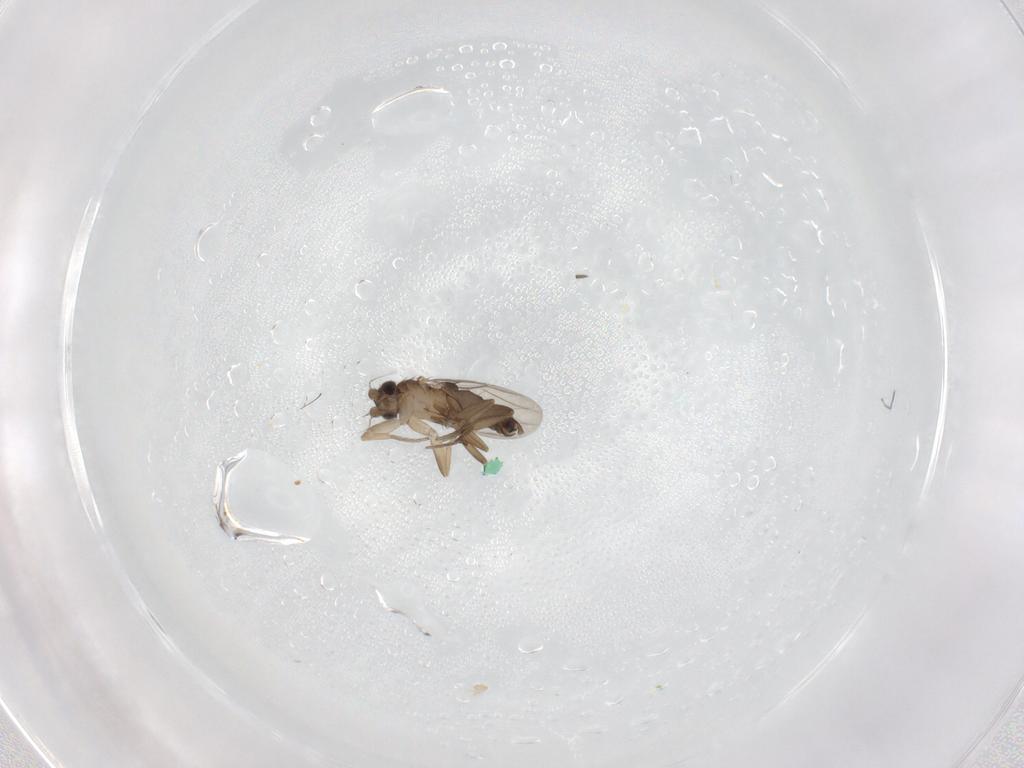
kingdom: Animalia
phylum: Arthropoda
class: Insecta
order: Diptera
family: Phoridae
